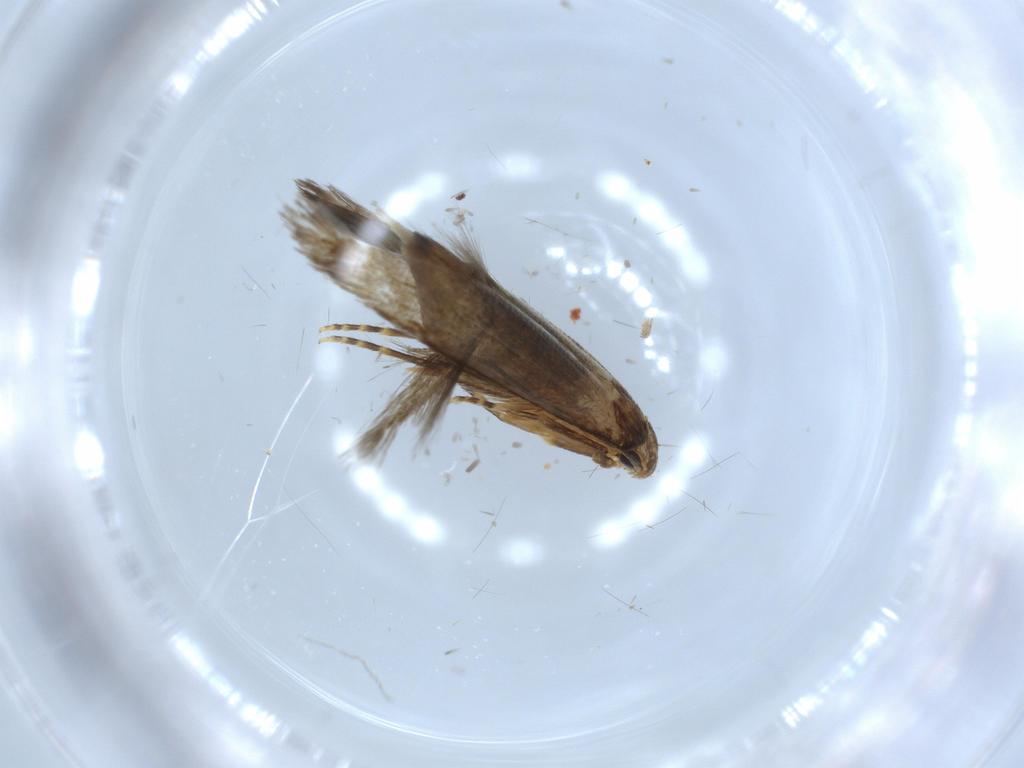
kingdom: Animalia
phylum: Arthropoda
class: Insecta
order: Lepidoptera
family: Tineidae
